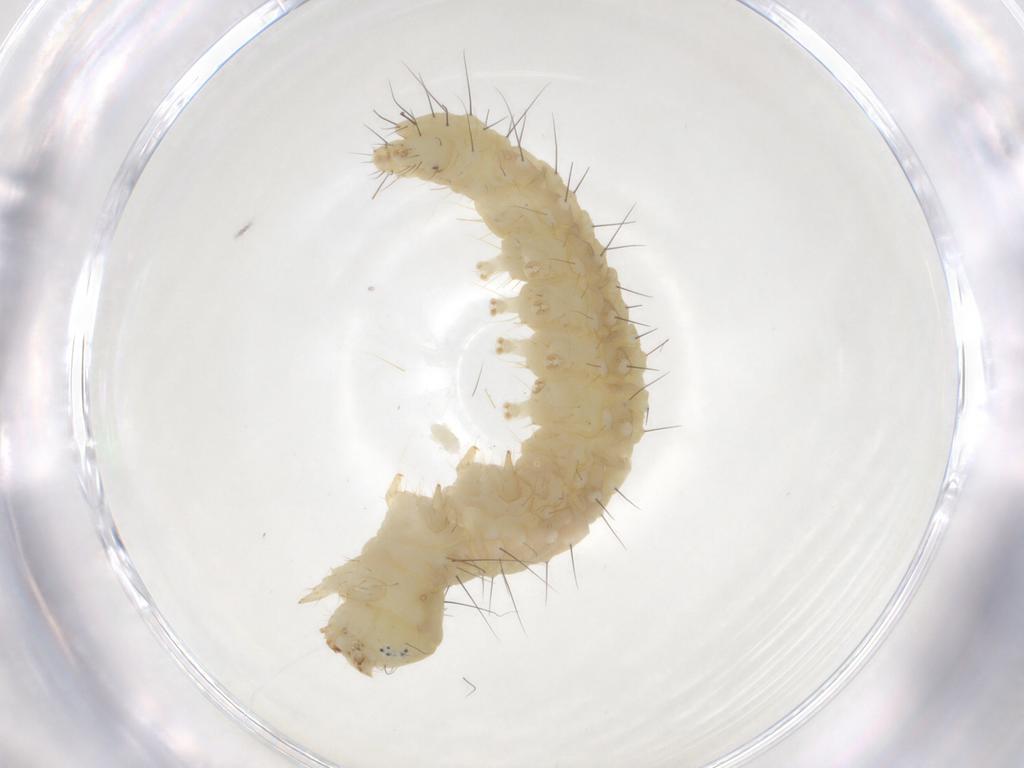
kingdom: Animalia
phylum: Arthropoda
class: Insecta
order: Lepidoptera
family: Gelechiidae
